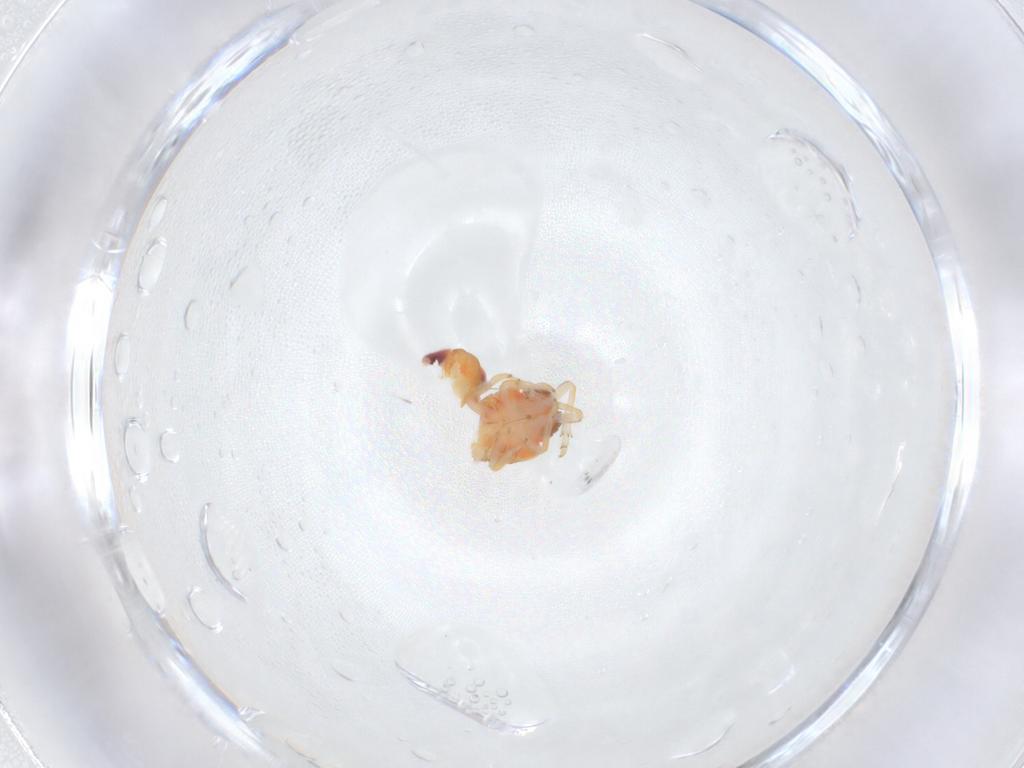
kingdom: Animalia
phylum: Arthropoda
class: Insecta
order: Hemiptera
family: Issidae
